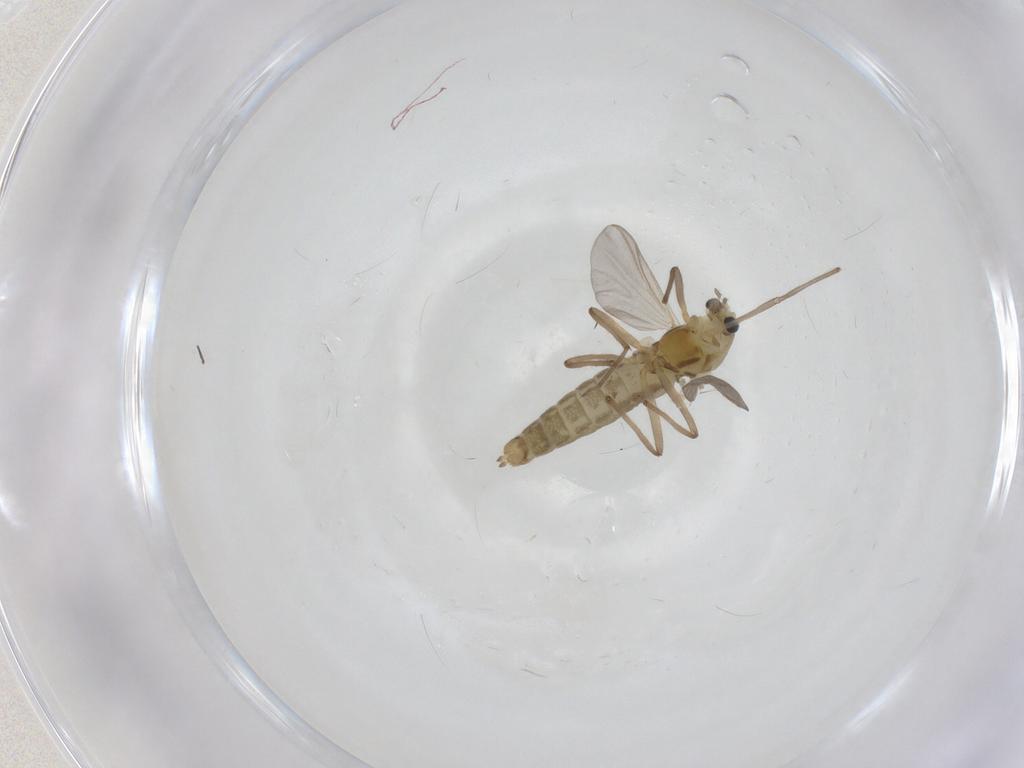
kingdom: Animalia
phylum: Arthropoda
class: Insecta
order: Diptera
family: Chironomidae
